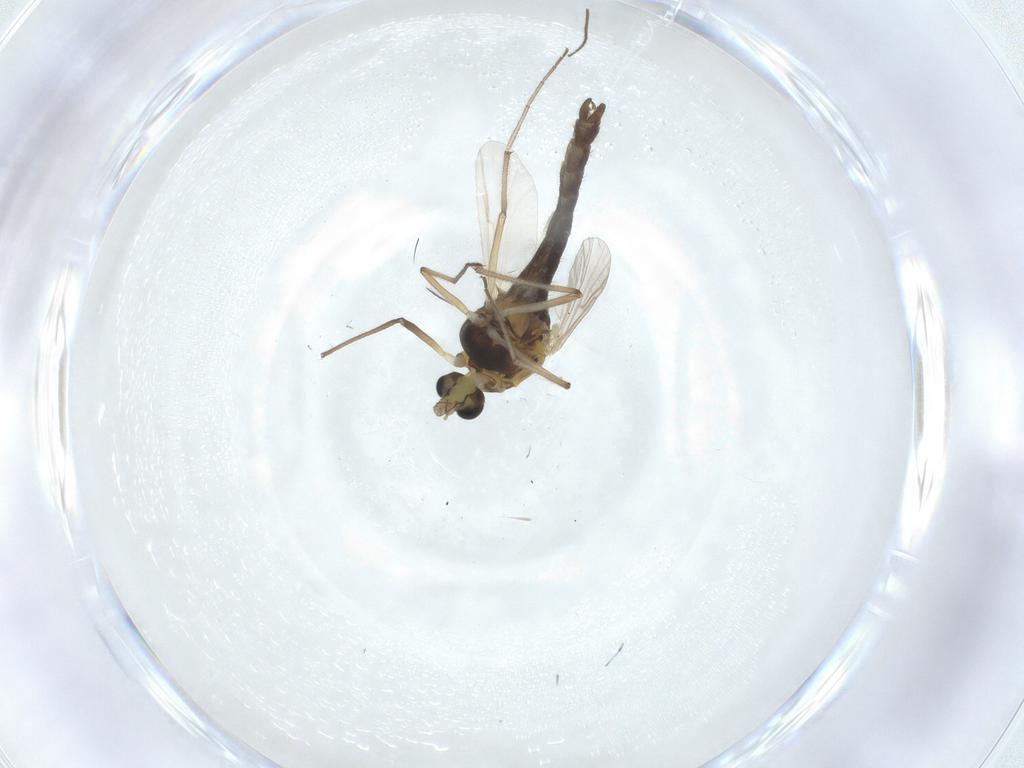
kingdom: Animalia
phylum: Arthropoda
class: Insecta
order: Diptera
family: Chironomidae
